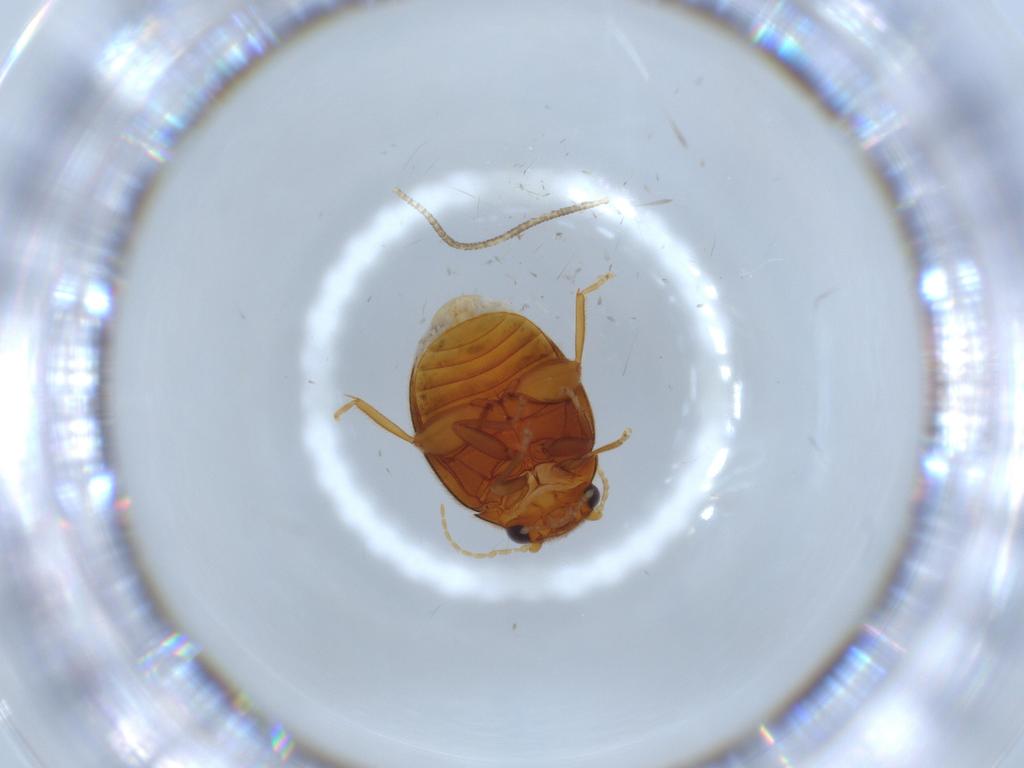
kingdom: Animalia
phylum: Arthropoda
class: Insecta
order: Coleoptera
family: Scirtidae
